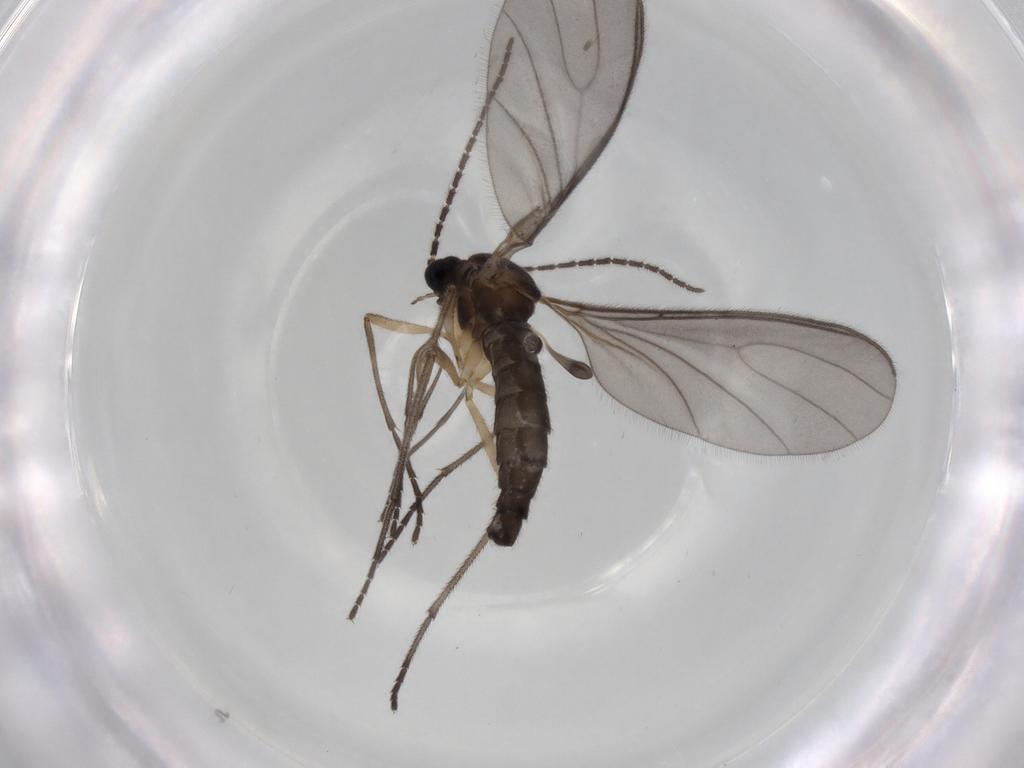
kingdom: Animalia
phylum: Arthropoda
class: Insecta
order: Diptera
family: Sciaridae
